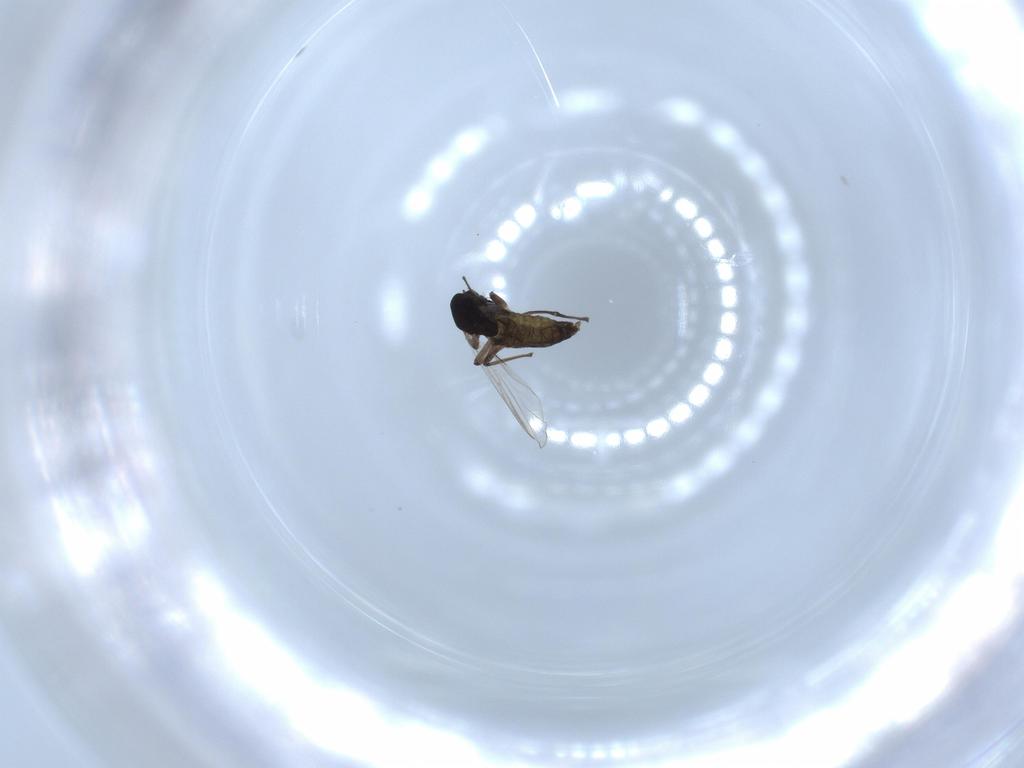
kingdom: Animalia
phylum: Arthropoda
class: Insecta
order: Diptera
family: Chironomidae
